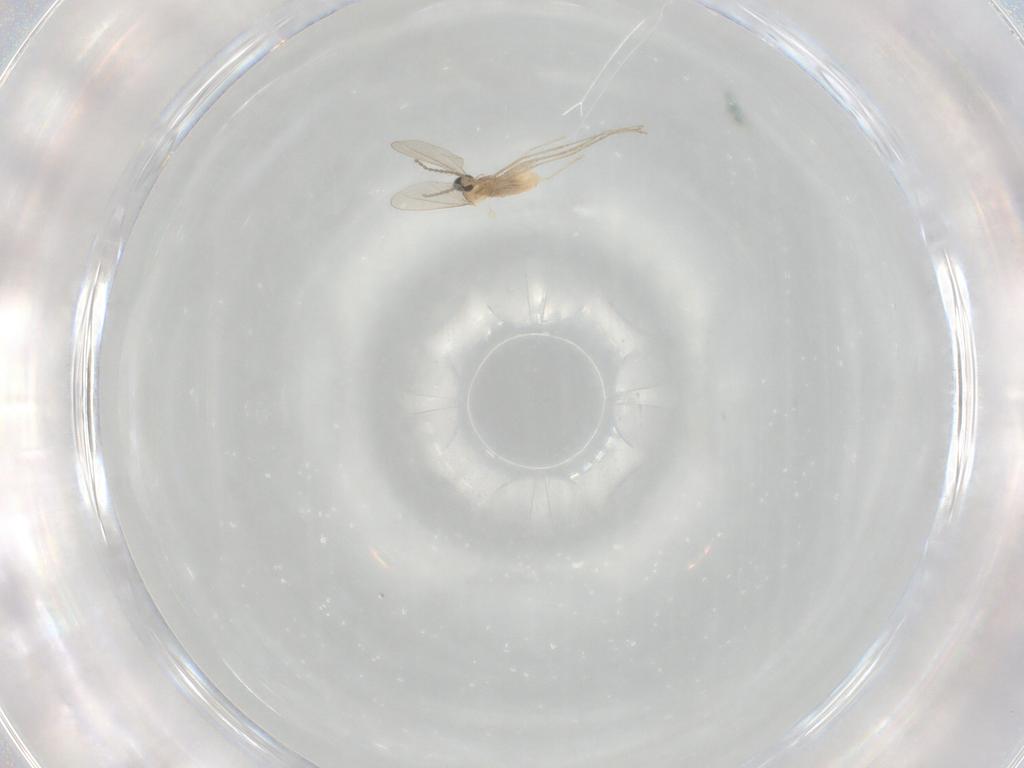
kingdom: Animalia
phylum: Arthropoda
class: Insecta
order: Diptera
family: Cecidomyiidae
